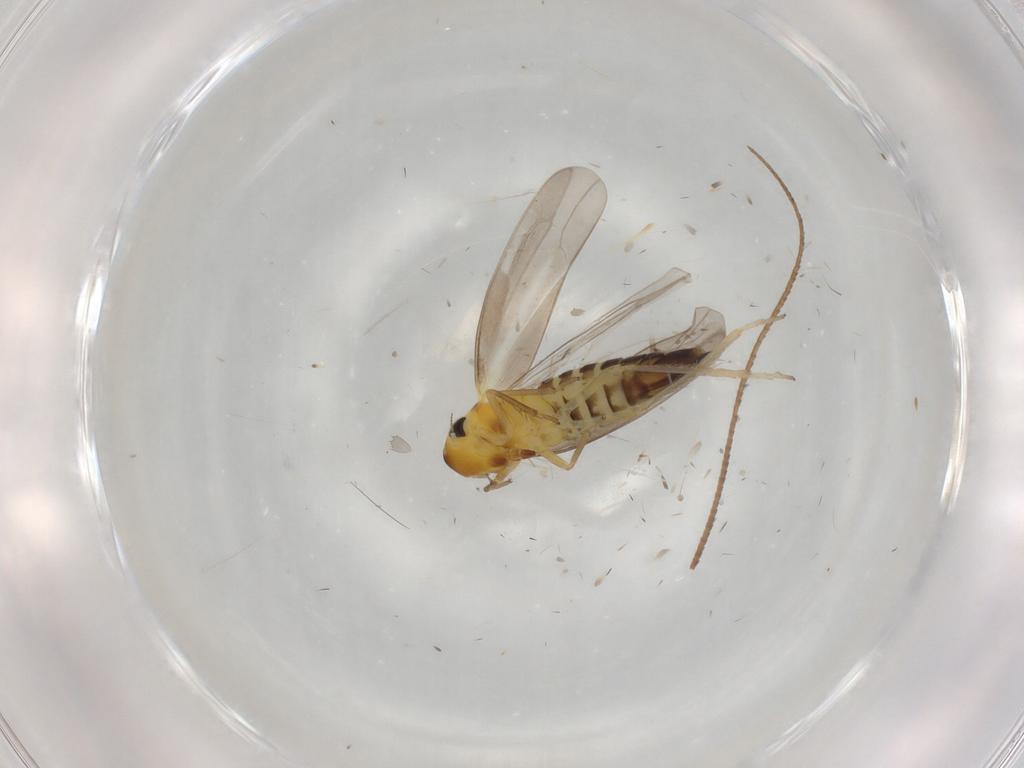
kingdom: Animalia
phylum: Arthropoda
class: Insecta
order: Hemiptera
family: Cicadellidae
